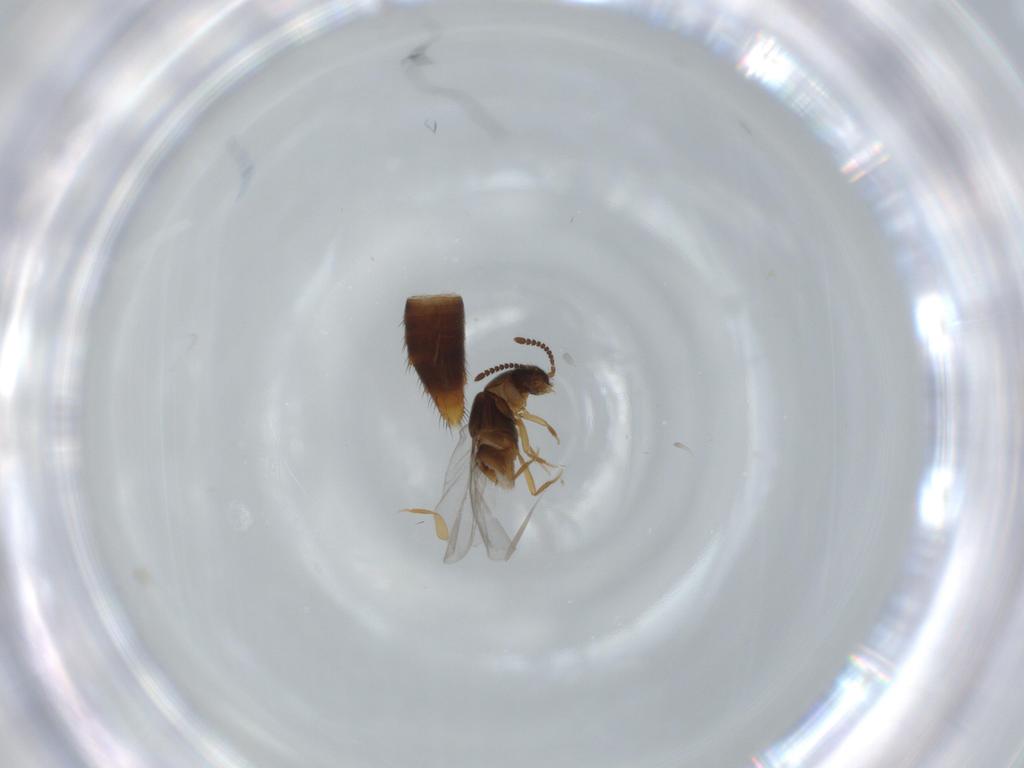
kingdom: Animalia
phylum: Arthropoda
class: Insecta
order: Coleoptera
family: Staphylinidae
